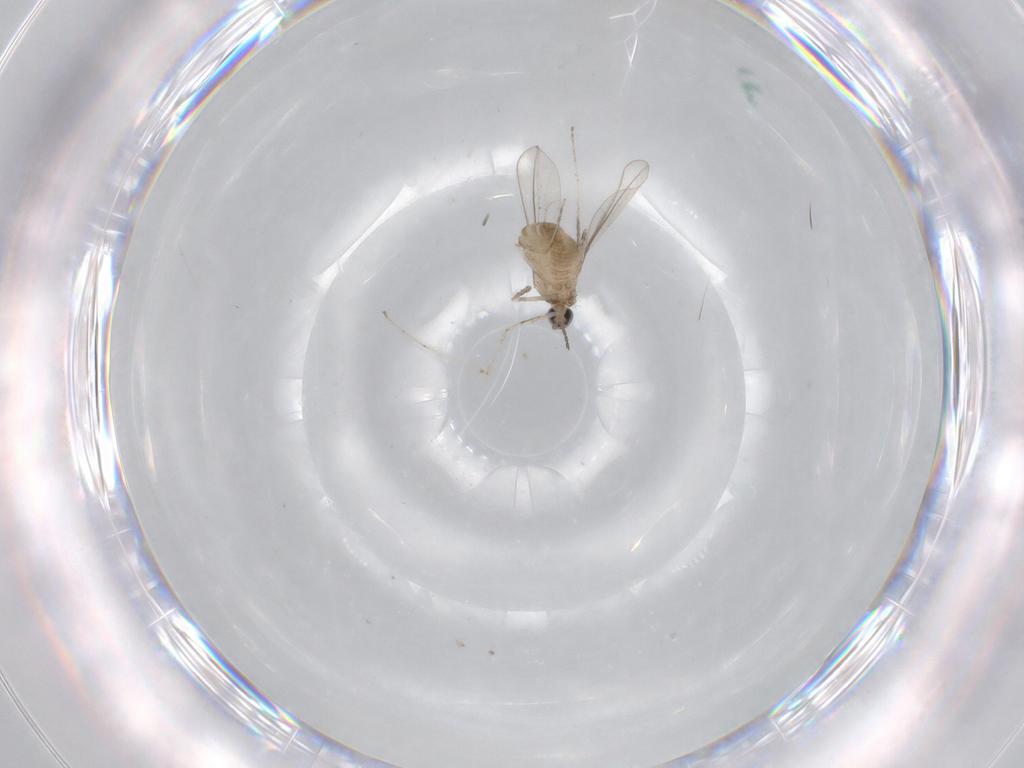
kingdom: Animalia
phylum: Arthropoda
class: Insecta
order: Diptera
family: Cecidomyiidae
